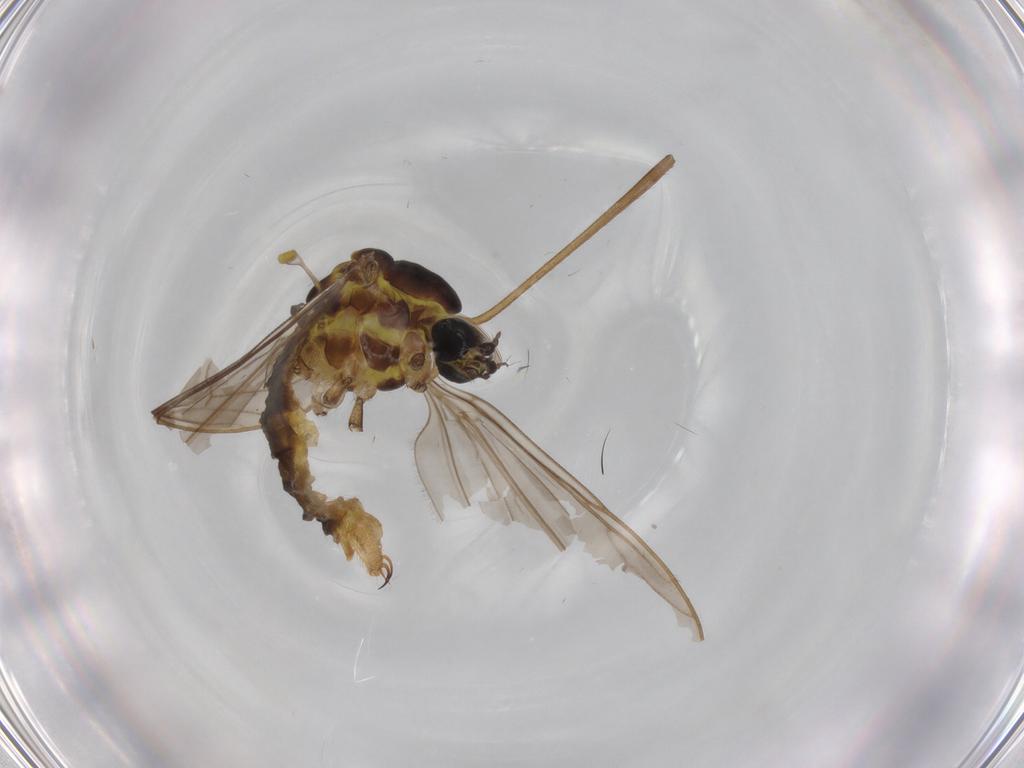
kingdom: Animalia
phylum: Arthropoda
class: Insecta
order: Diptera
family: Limoniidae
